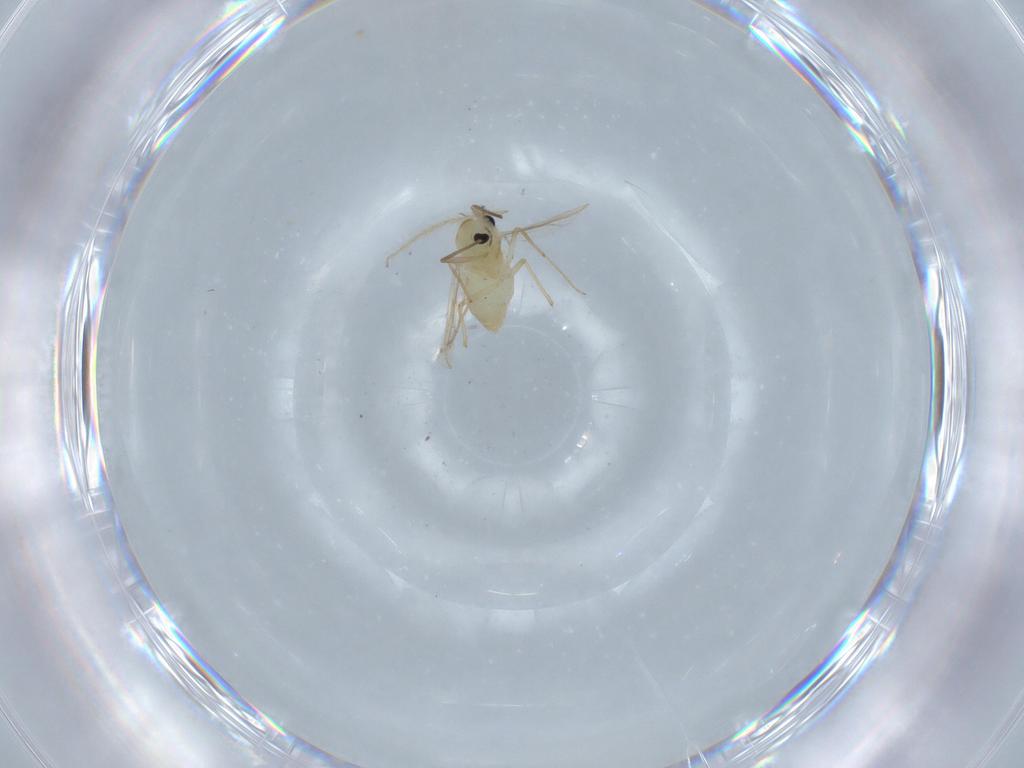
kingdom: Animalia
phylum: Arthropoda
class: Insecta
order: Diptera
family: Chironomidae
